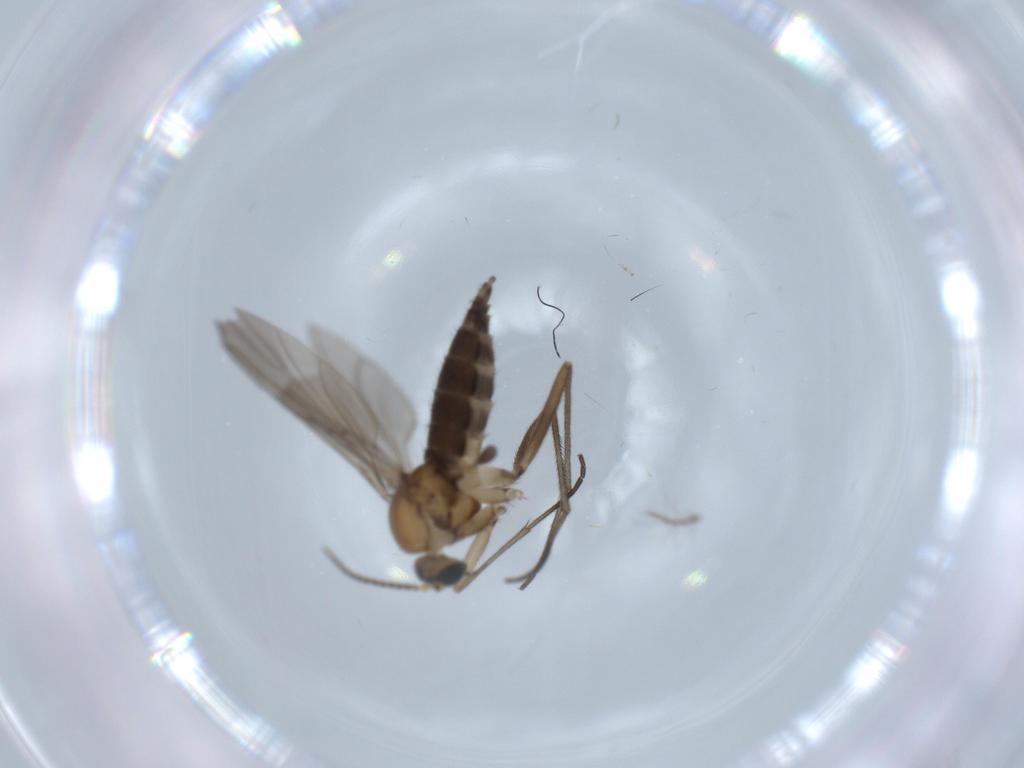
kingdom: Animalia
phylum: Arthropoda
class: Insecta
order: Diptera
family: Sciaridae
